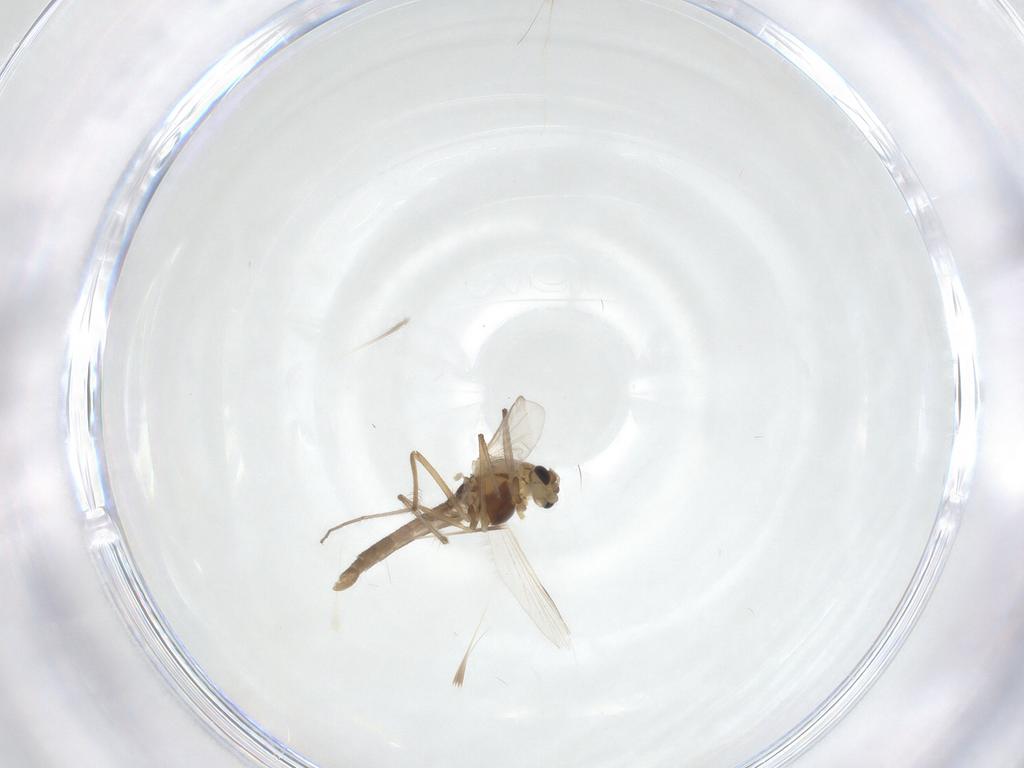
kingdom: Animalia
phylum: Arthropoda
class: Insecta
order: Diptera
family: Chironomidae
